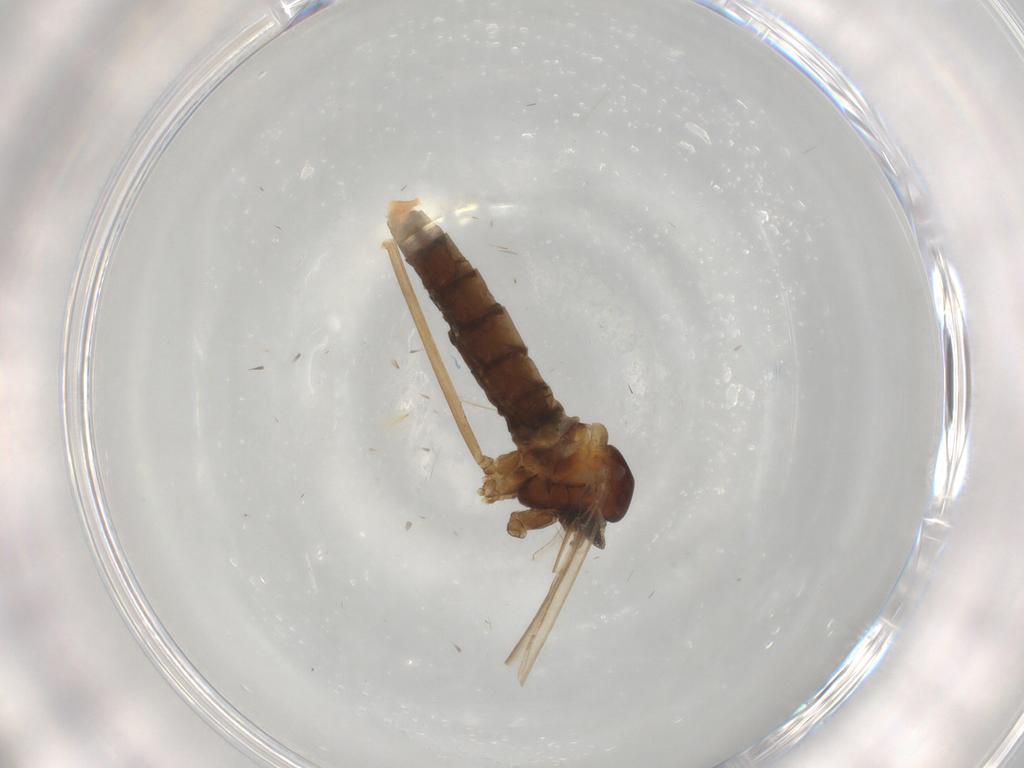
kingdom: Animalia
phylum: Arthropoda
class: Insecta
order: Diptera
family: Cecidomyiidae
